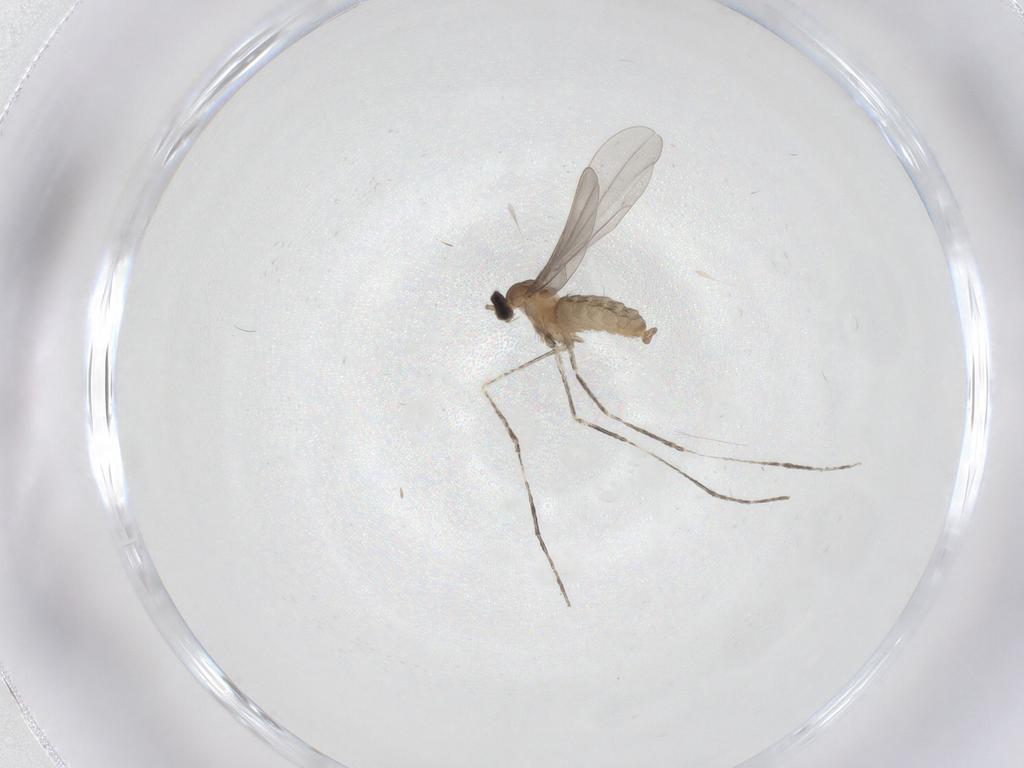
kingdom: Animalia
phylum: Arthropoda
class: Insecta
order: Diptera
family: Cecidomyiidae
